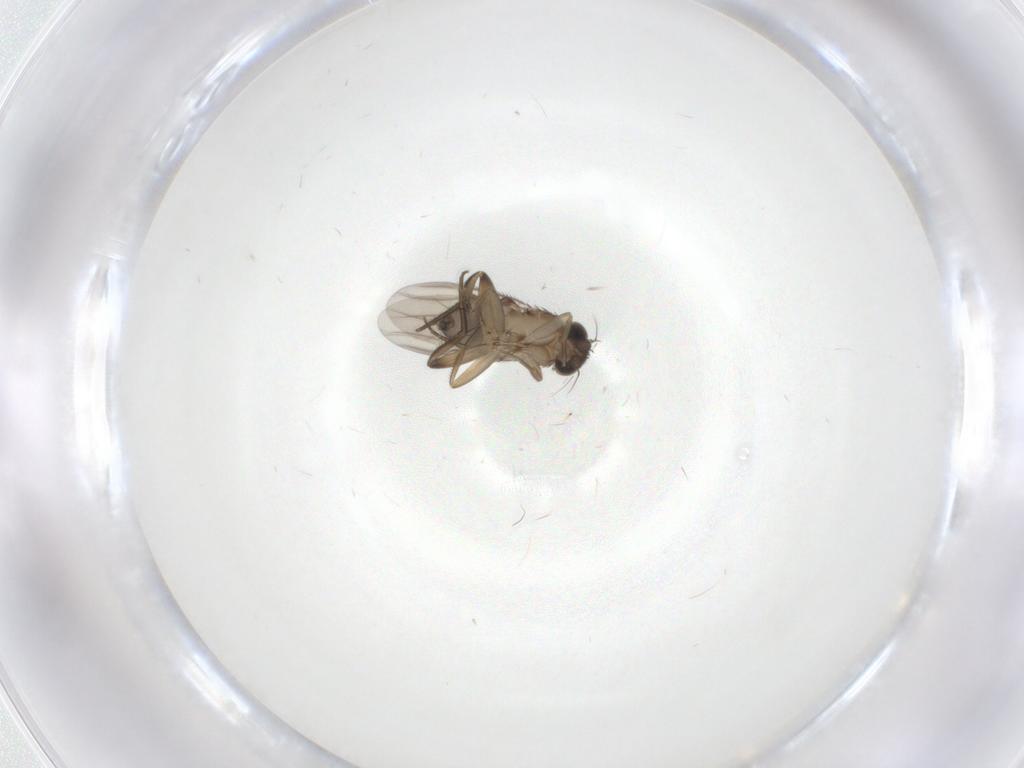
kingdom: Animalia
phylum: Arthropoda
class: Insecta
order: Diptera
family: Phoridae
